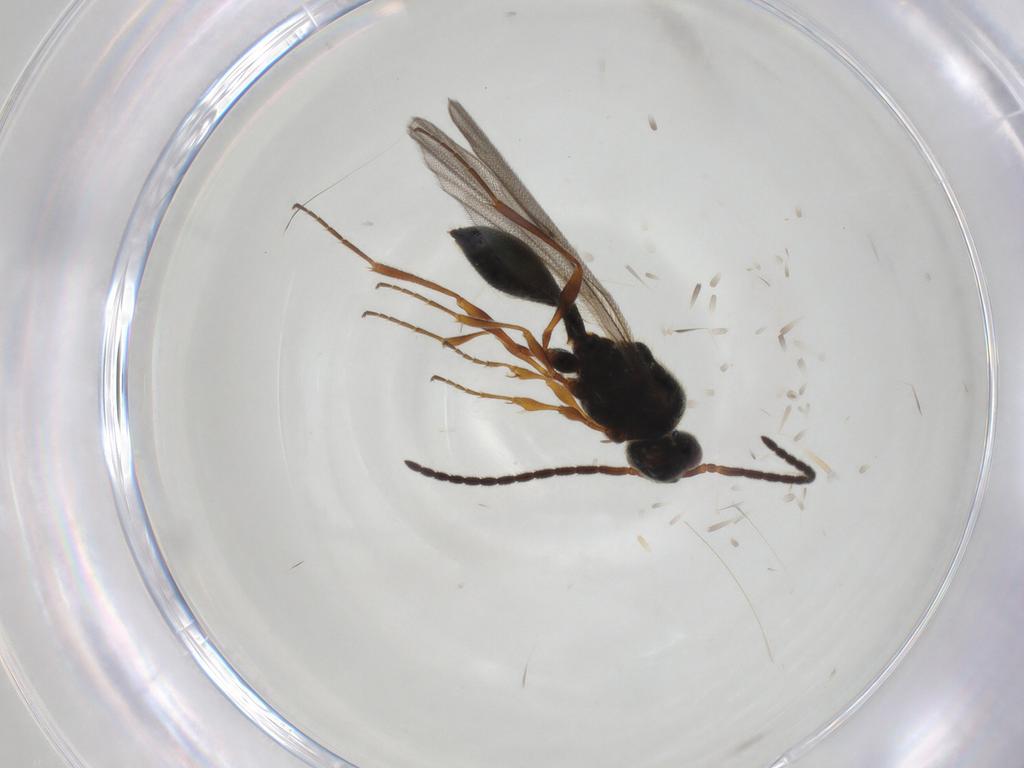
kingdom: Animalia
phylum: Arthropoda
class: Insecta
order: Hymenoptera
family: Diapriidae
